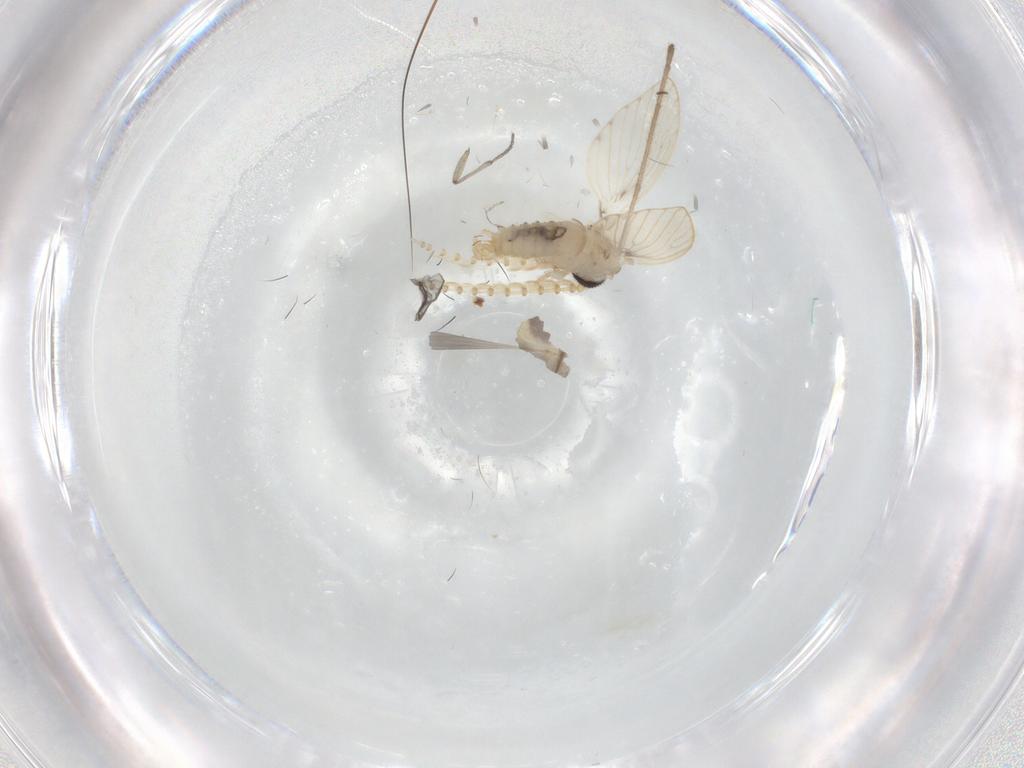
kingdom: Animalia
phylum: Arthropoda
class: Insecta
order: Diptera
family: Psychodidae
